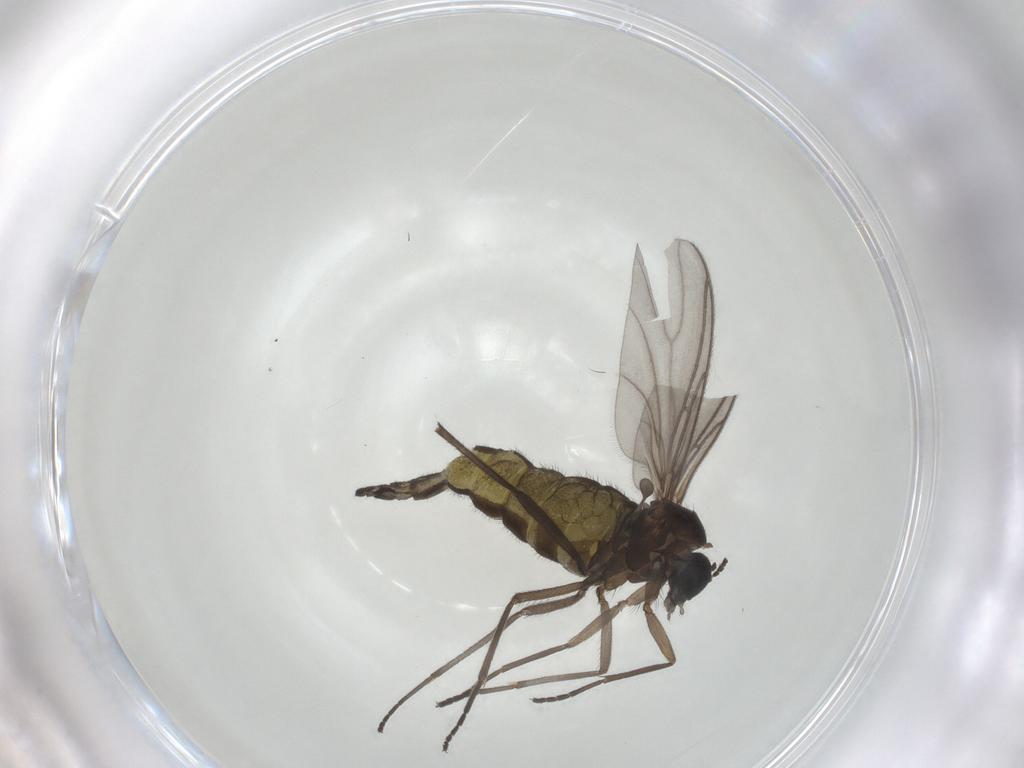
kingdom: Animalia
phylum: Arthropoda
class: Insecta
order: Diptera
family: Sciaridae
